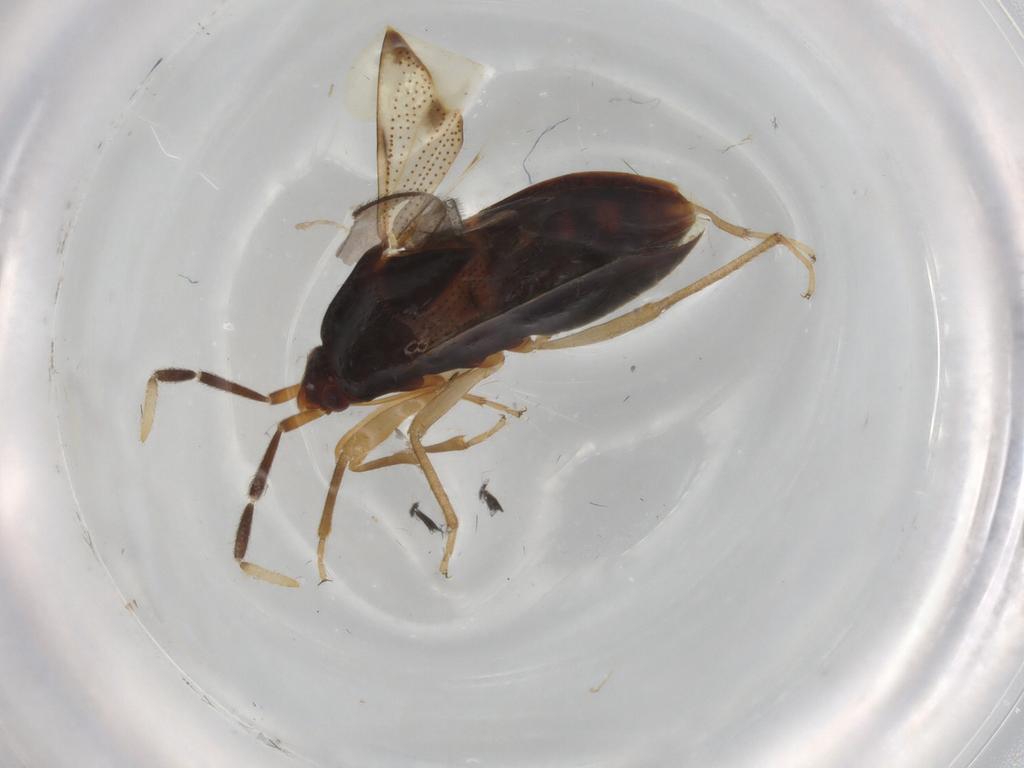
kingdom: Animalia
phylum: Arthropoda
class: Insecta
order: Hemiptera
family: Rhyparochromidae
